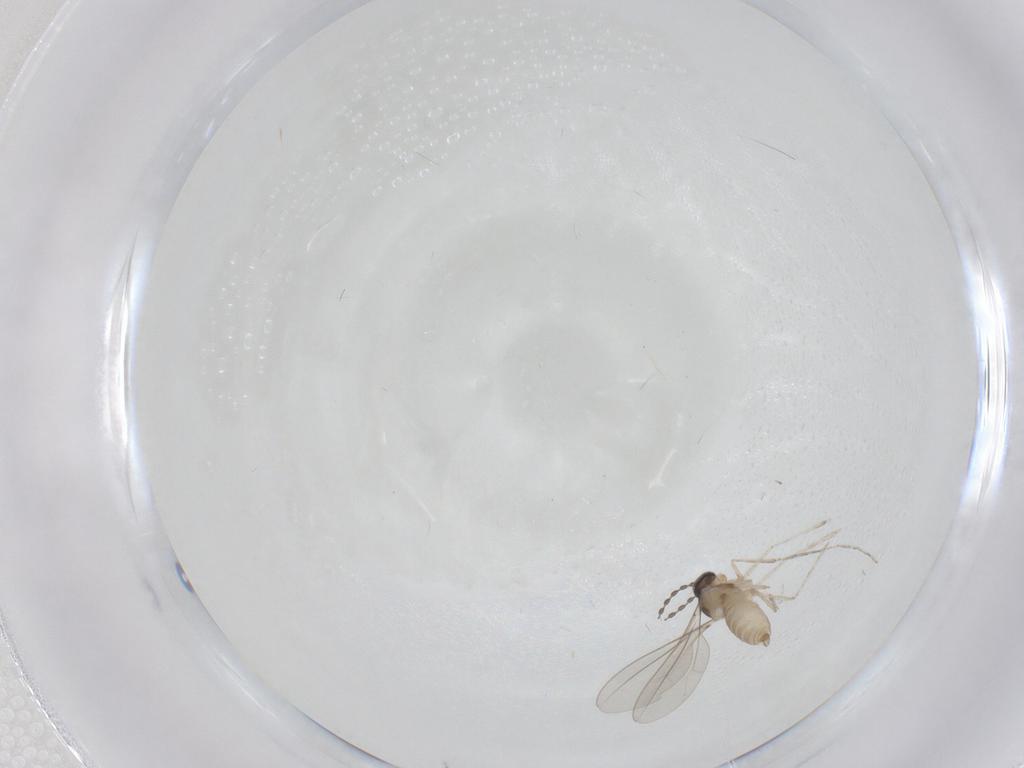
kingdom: Animalia
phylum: Arthropoda
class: Insecta
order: Diptera
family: Cecidomyiidae
